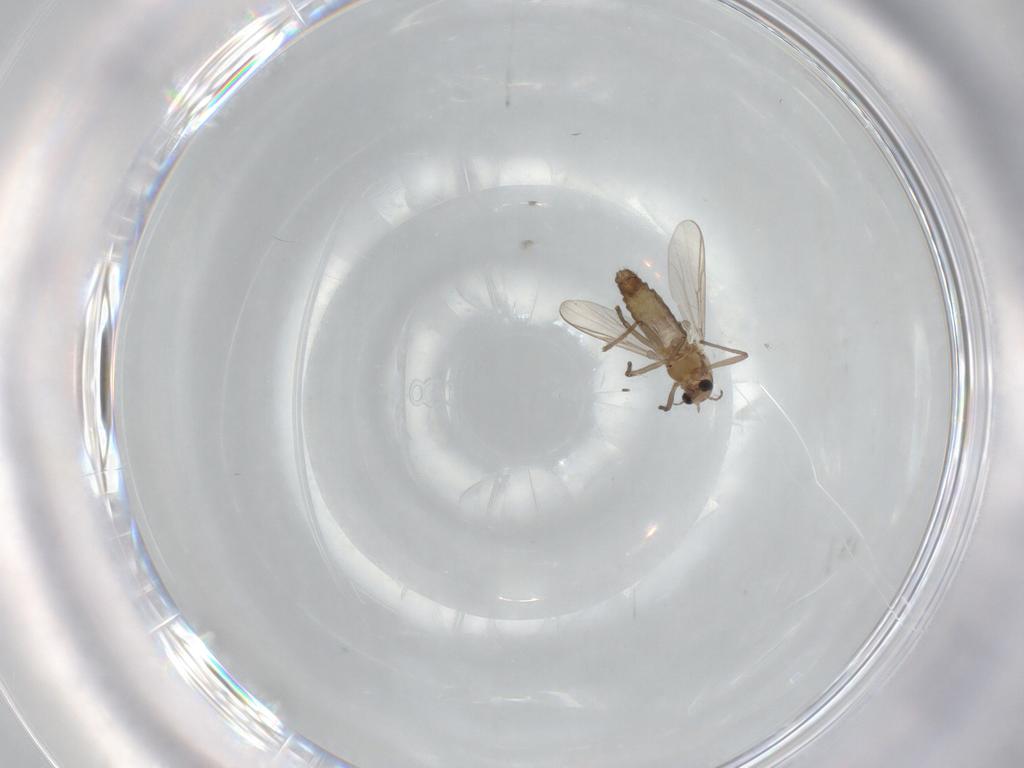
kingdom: Animalia
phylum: Arthropoda
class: Insecta
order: Diptera
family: Chironomidae
